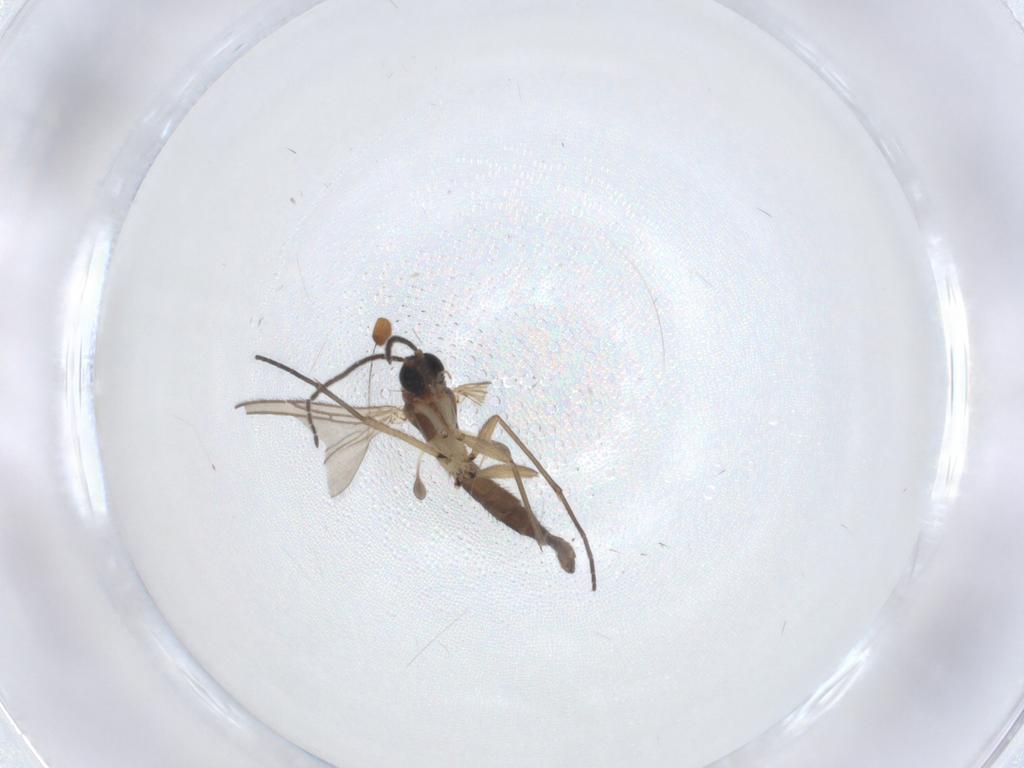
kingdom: Animalia
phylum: Arthropoda
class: Insecta
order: Diptera
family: Sciaridae
